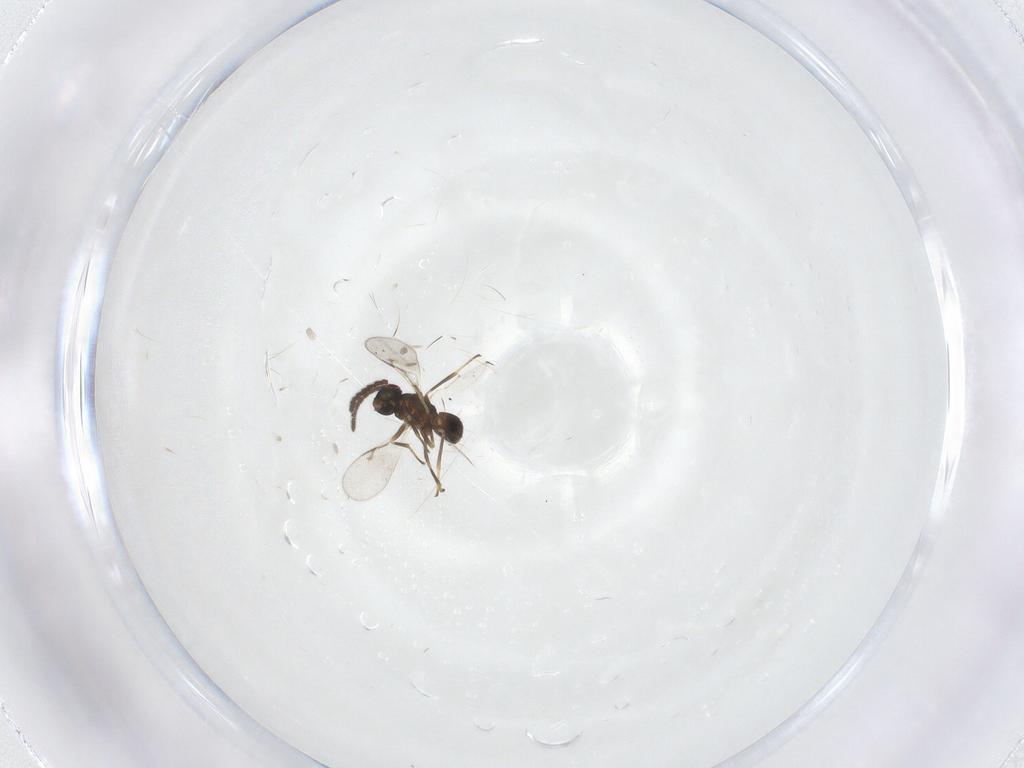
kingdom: Animalia
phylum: Arthropoda
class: Insecta
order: Hymenoptera
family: Encyrtidae
